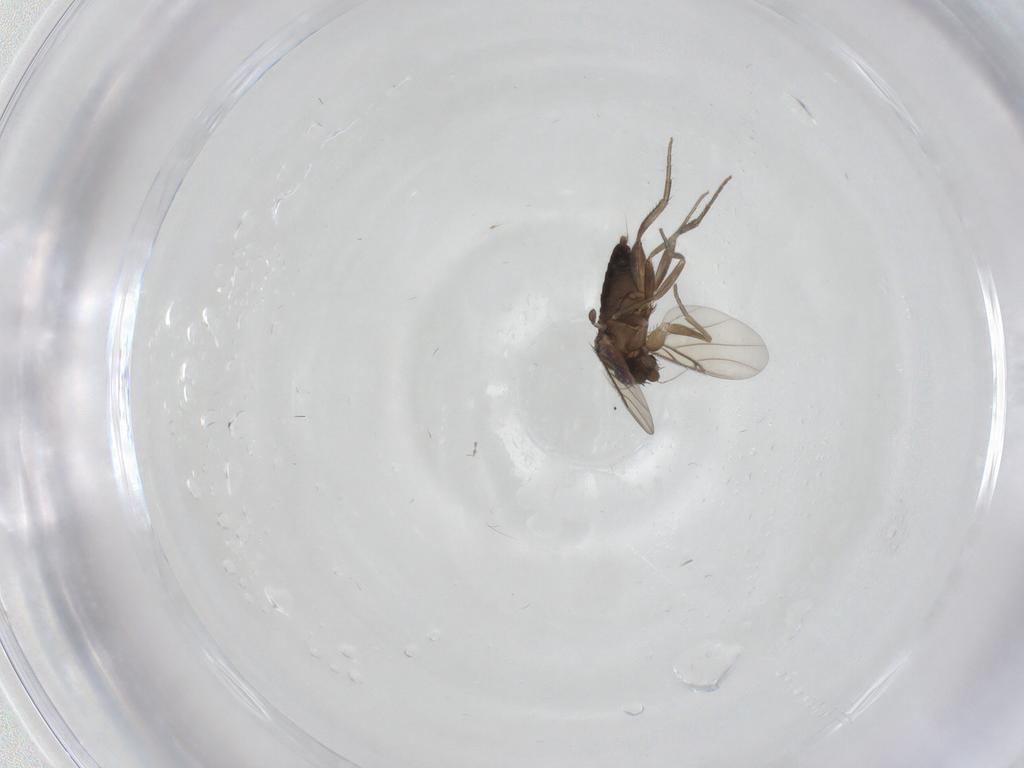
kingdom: Animalia
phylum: Arthropoda
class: Insecta
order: Diptera
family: Phoridae
